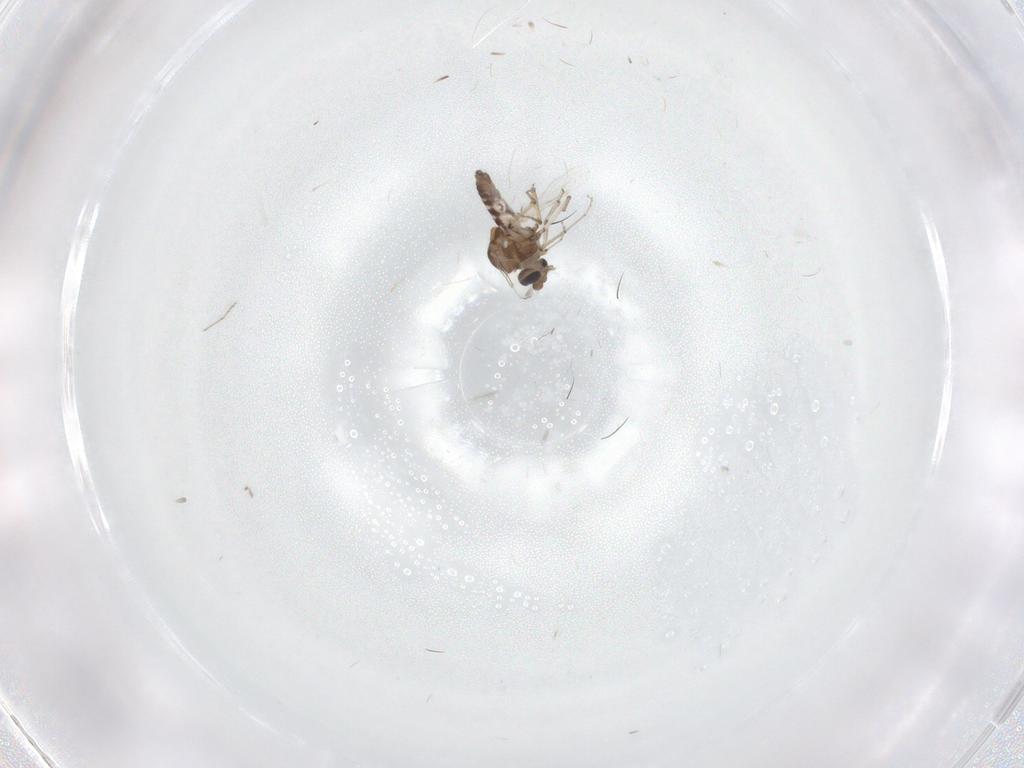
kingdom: Animalia
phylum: Arthropoda
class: Insecta
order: Diptera
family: Ceratopogonidae
